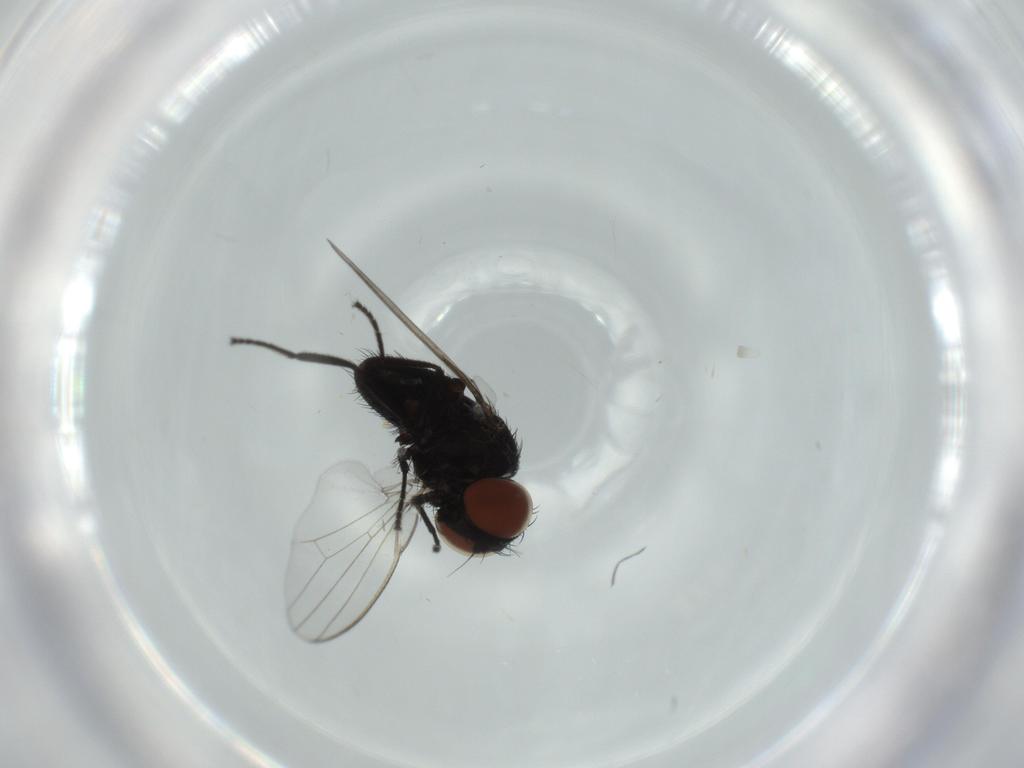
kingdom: Animalia
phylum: Arthropoda
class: Insecta
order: Diptera
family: Milichiidae
